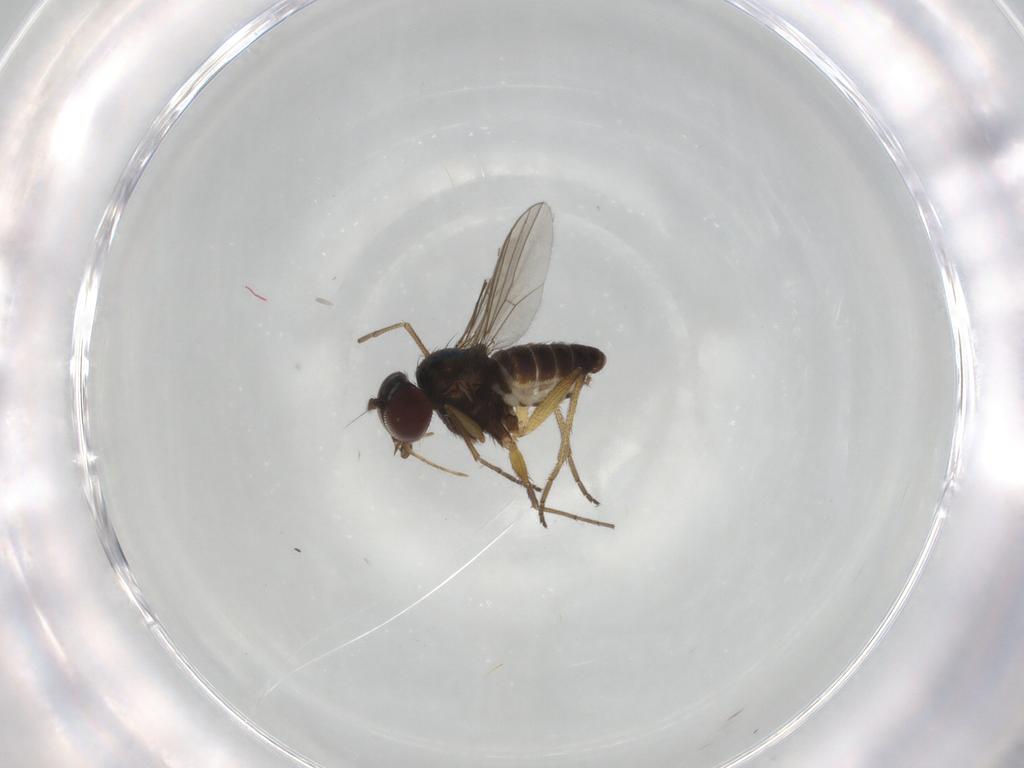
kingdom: Animalia
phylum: Arthropoda
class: Insecta
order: Diptera
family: Dolichopodidae
